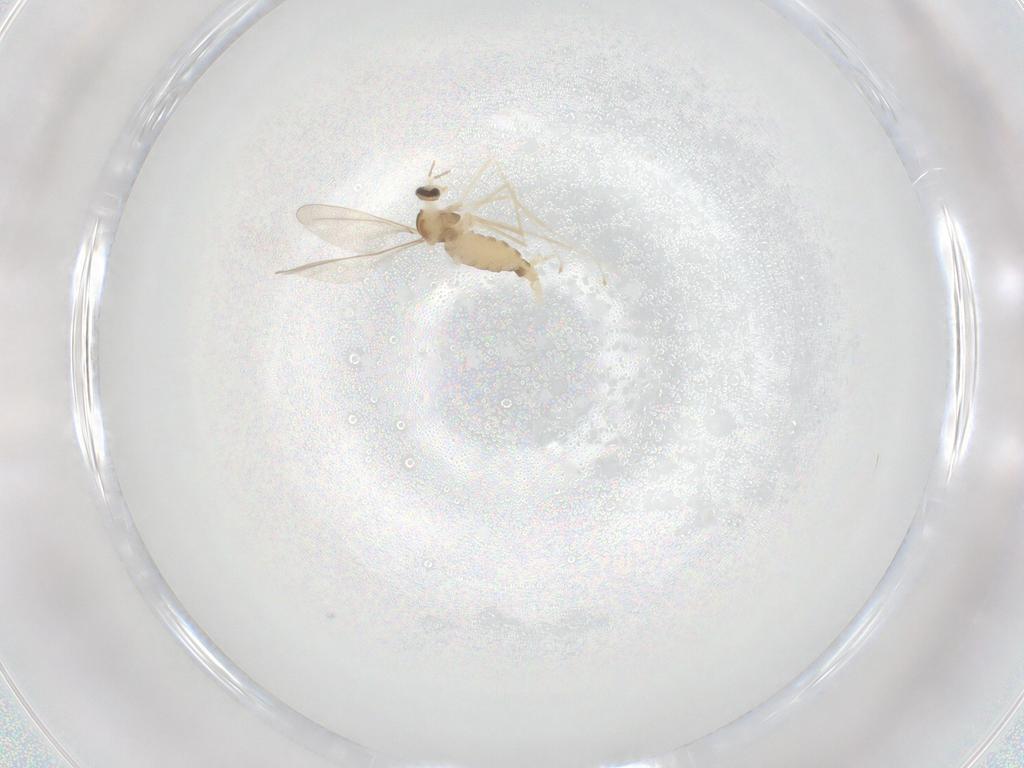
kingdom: Animalia
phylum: Arthropoda
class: Insecta
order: Diptera
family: Cecidomyiidae
